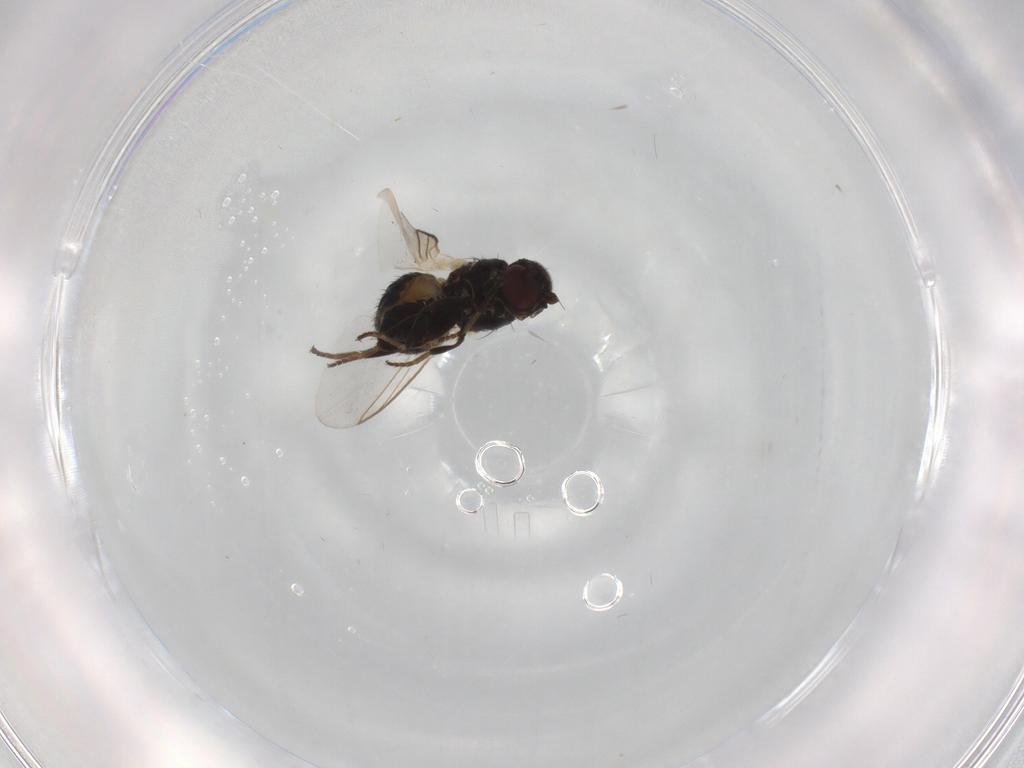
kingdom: Animalia
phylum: Arthropoda
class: Insecta
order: Diptera
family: Agromyzidae
